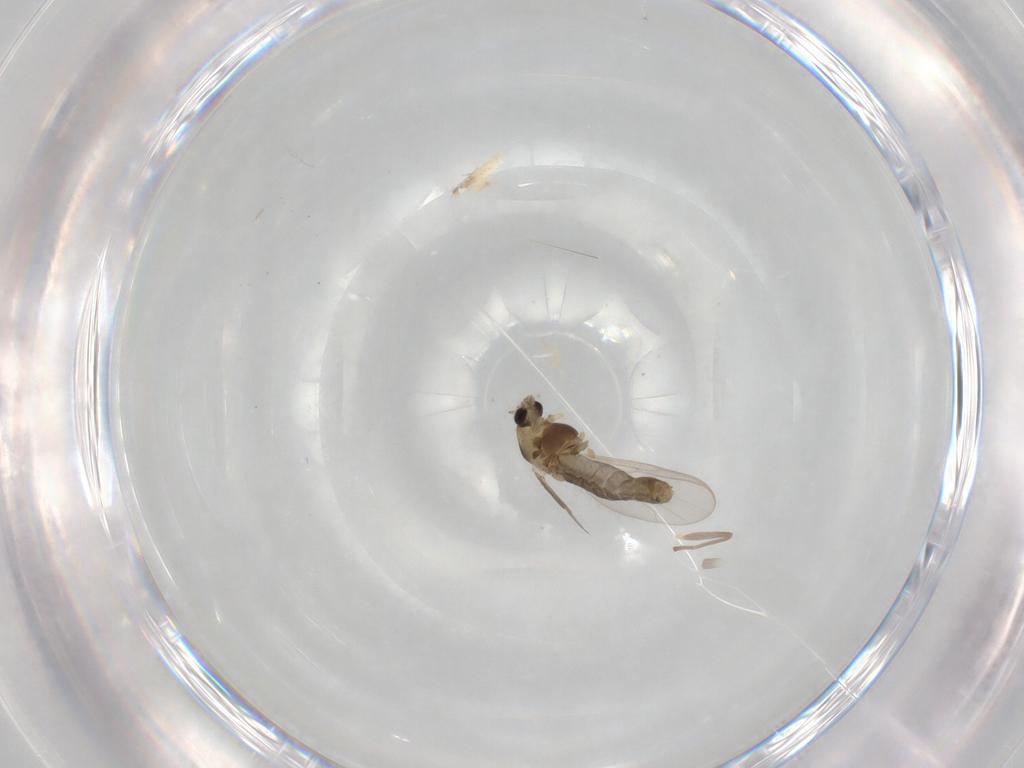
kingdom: Animalia
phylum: Arthropoda
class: Insecta
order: Diptera
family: Chironomidae
